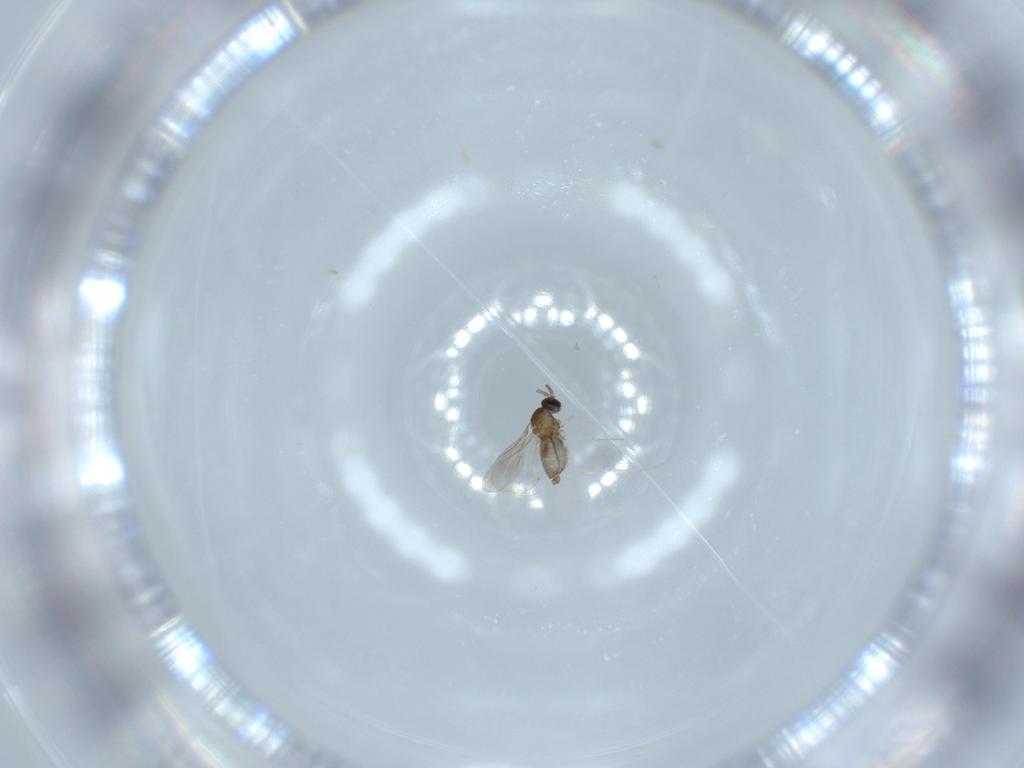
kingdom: Animalia
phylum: Arthropoda
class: Insecta
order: Diptera
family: Cecidomyiidae
